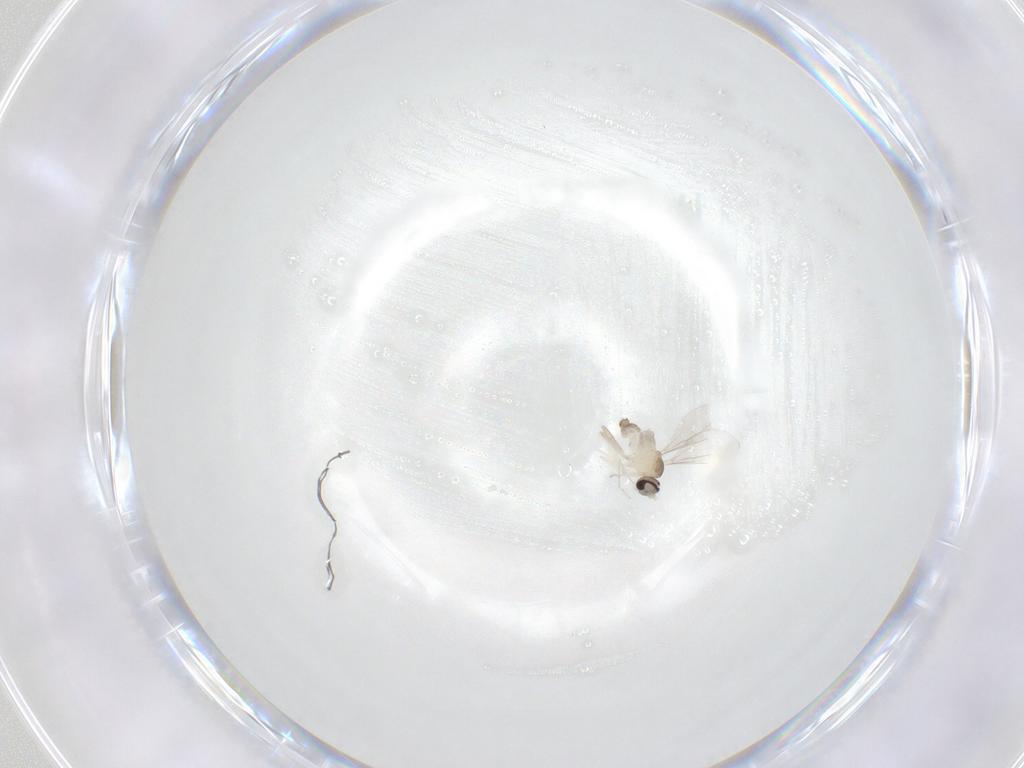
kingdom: Animalia
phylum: Arthropoda
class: Insecta
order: Diptera
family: Cecidomyiidae
